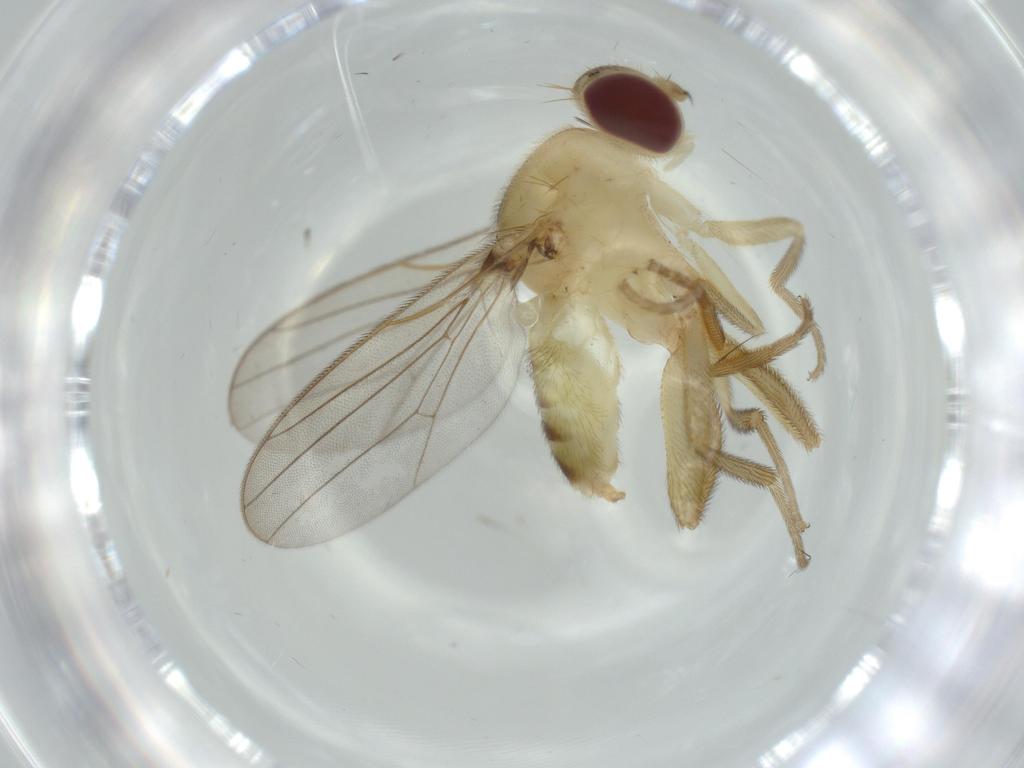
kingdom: Animalia
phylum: Arthropoda
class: Insecta
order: Diptera
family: Chloropidae
